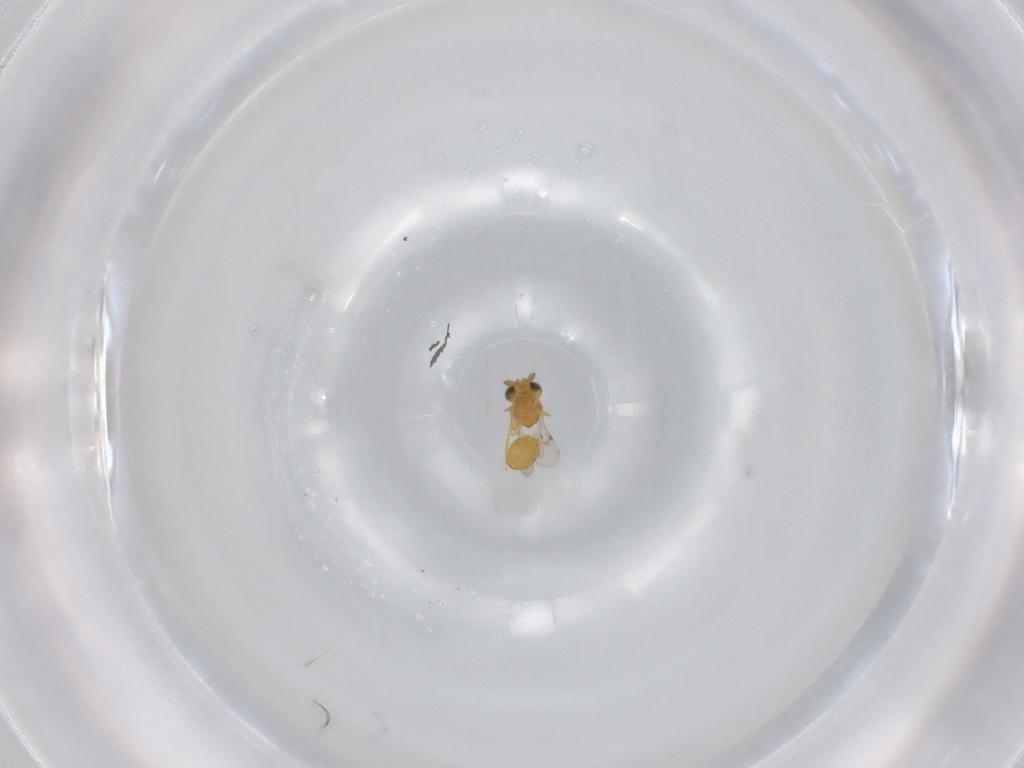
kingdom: Animalia
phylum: Arthropoda
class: Insecta
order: Hymenoptera
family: Scelionidae
